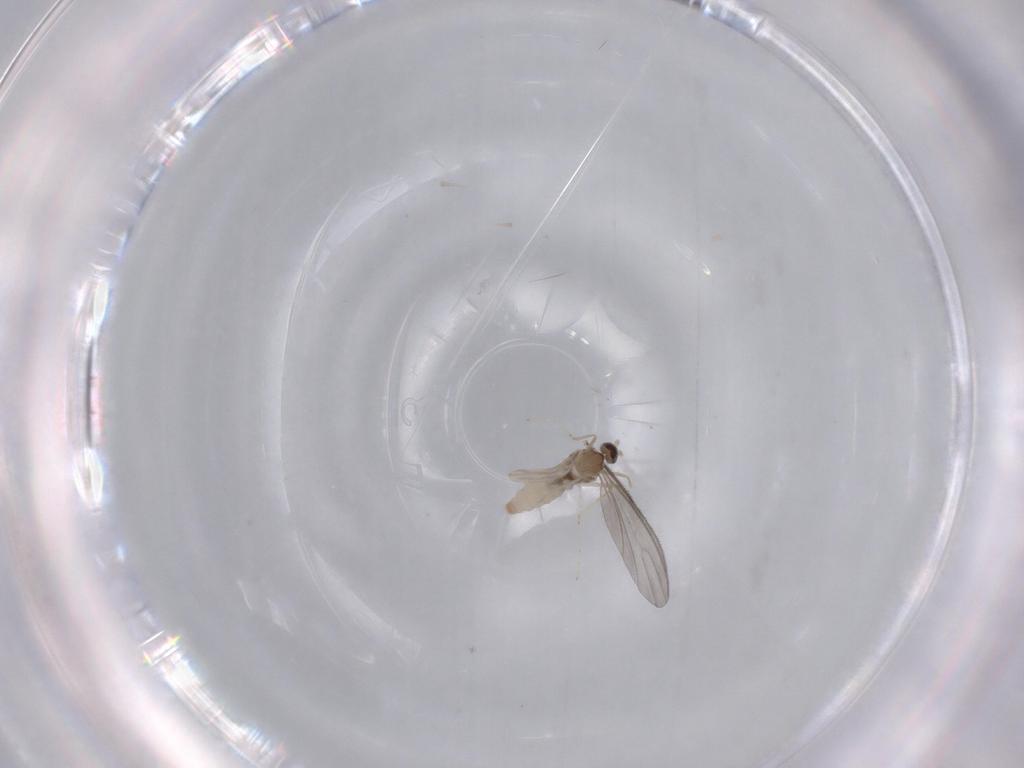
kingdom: Animalia
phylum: Arthropoda
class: Insecta
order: Diptera
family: Cecidomyiidae
